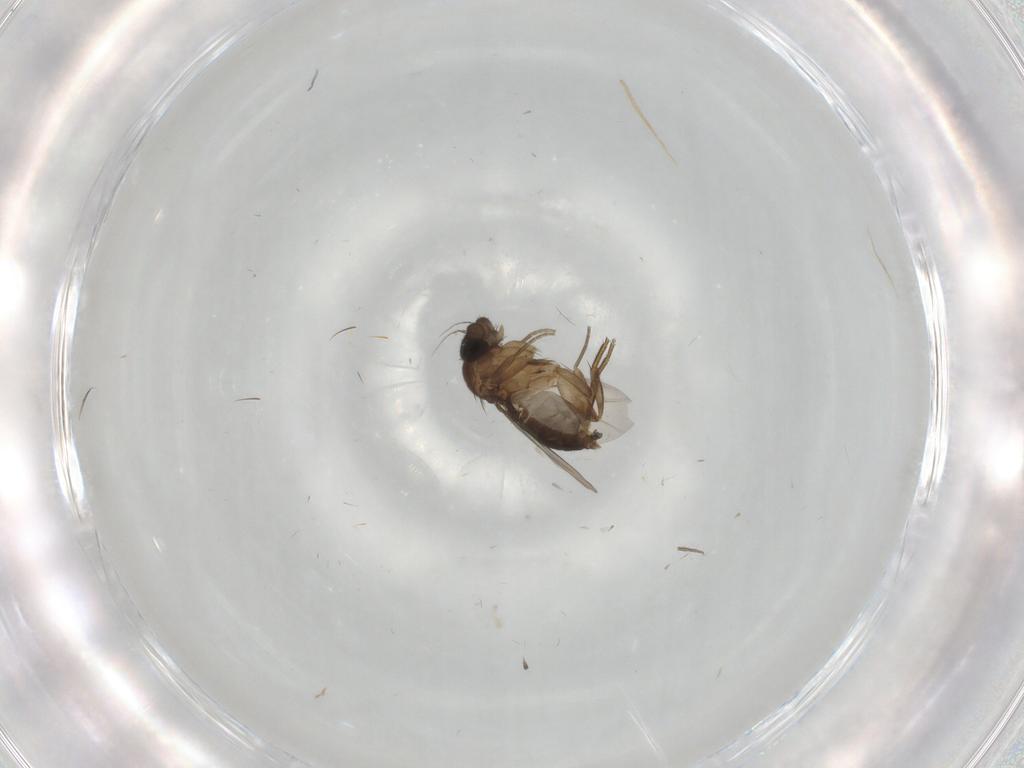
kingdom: Animalia
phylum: Arthropoda
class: Insecta
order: Diptera
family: Phoridae
